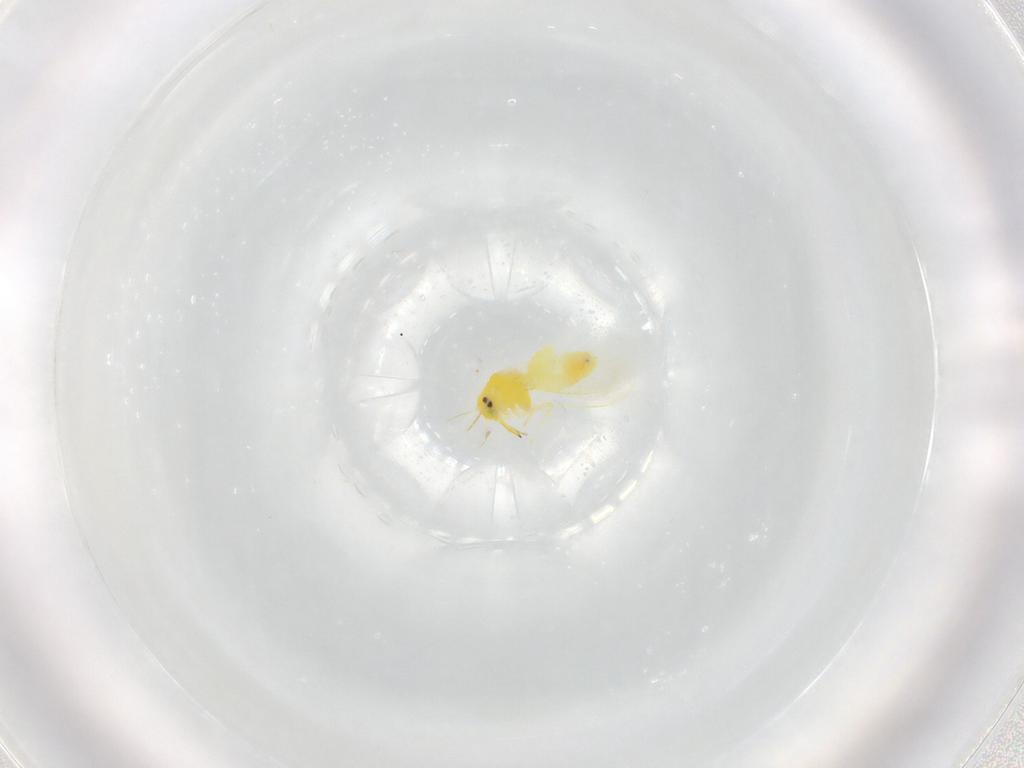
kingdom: Animalia
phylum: Arthropoda
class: Insecta
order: Hemiptera
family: Aleyrodidae
